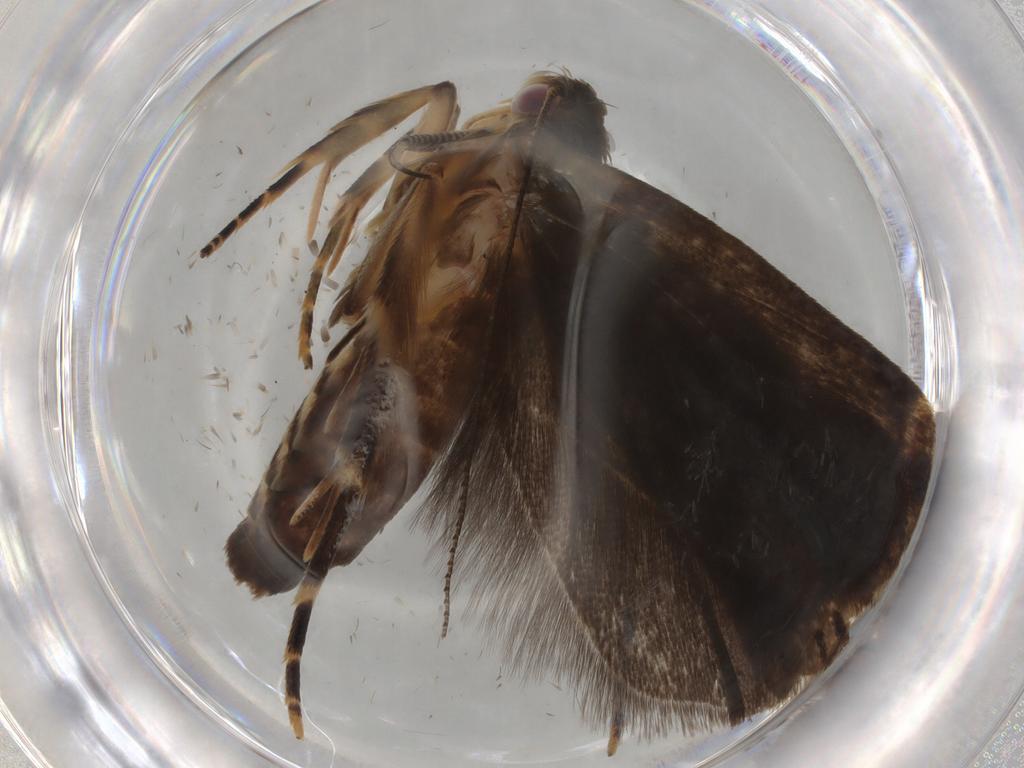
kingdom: Animalia
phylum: Arthropoda
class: Insecta
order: Lepidoptera
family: Gelechiidae
